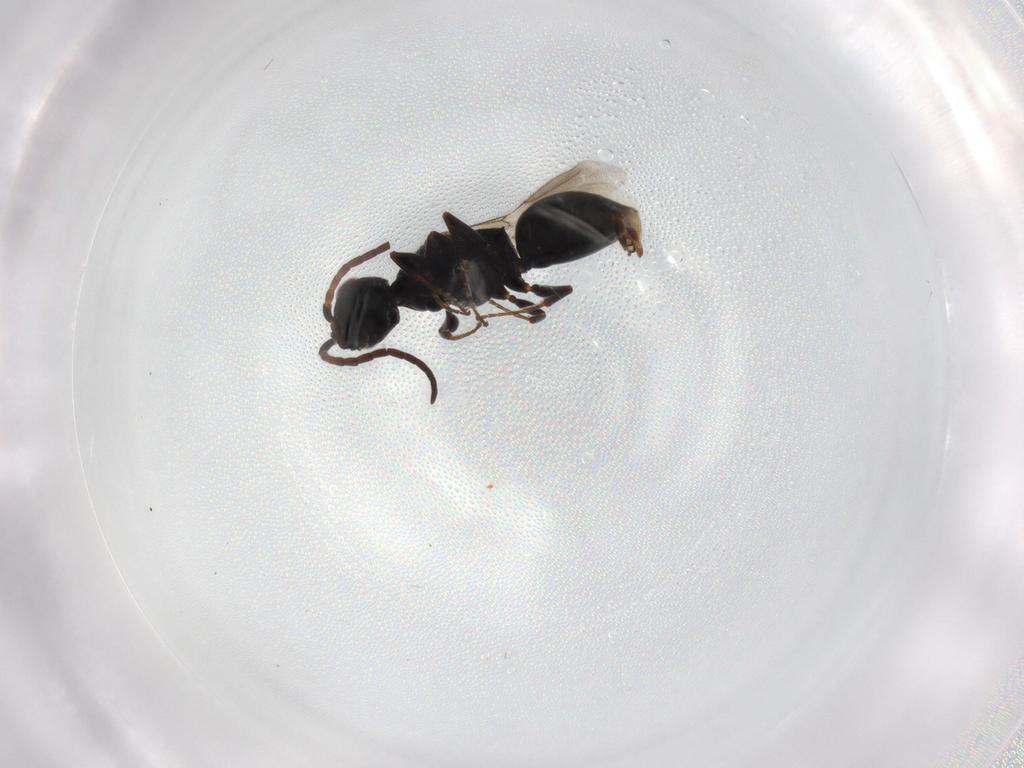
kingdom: Animalia
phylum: Arthropoda
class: Insecta
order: Hymenoptera
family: Bethylidae
